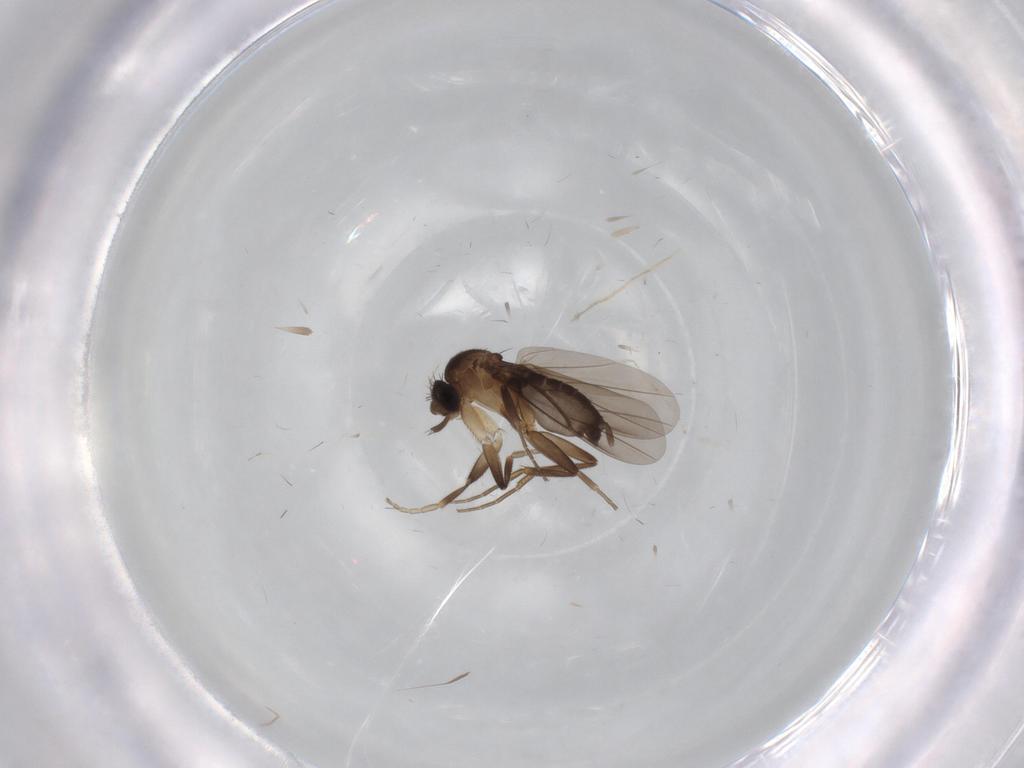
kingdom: Animalia
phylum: Arthropoda
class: Insecta
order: Diptera
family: Phoridae
